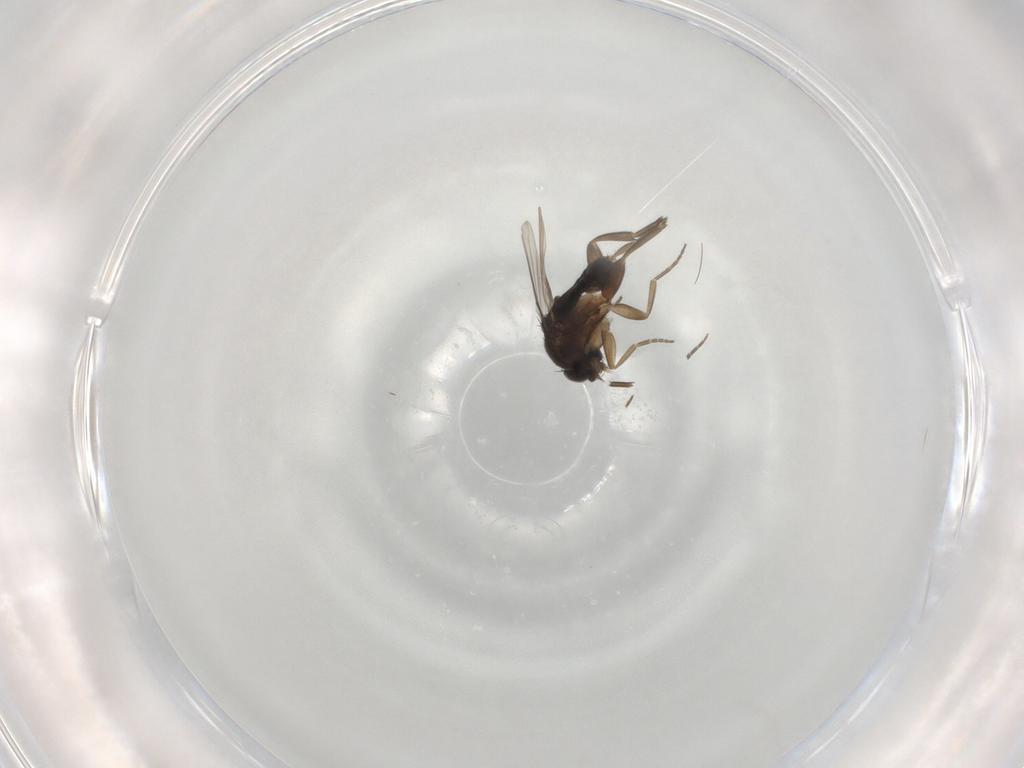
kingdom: Animalia
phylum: Arthropoda
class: Insecta
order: Diptera
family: Phoridae
